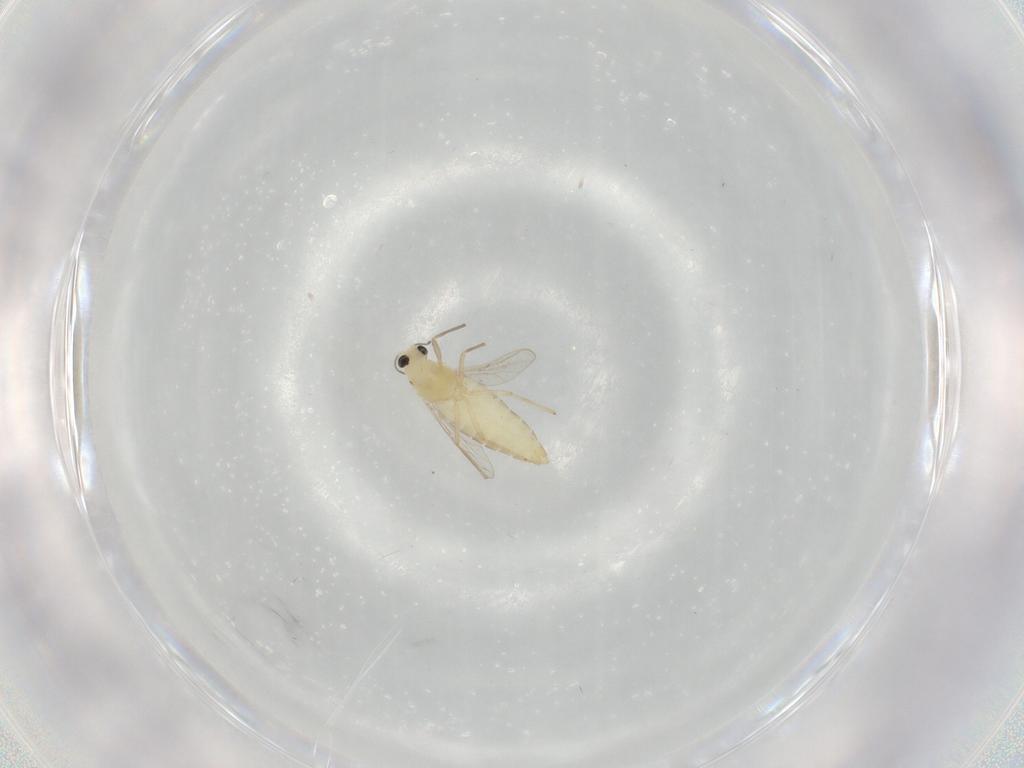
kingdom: Animalia
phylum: Arthropoda
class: Insecta
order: Diptera
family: Chironomidae
